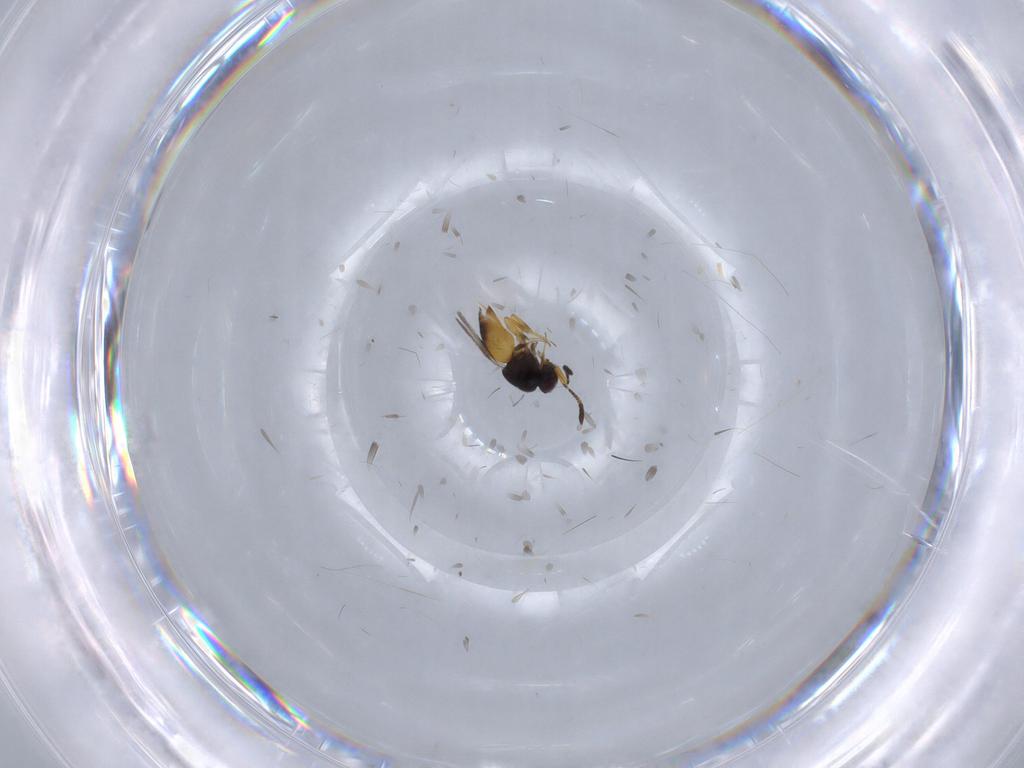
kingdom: Animalia
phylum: Arthropoda
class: Insecta
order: Hymenoptera
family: Ceraphronidae
